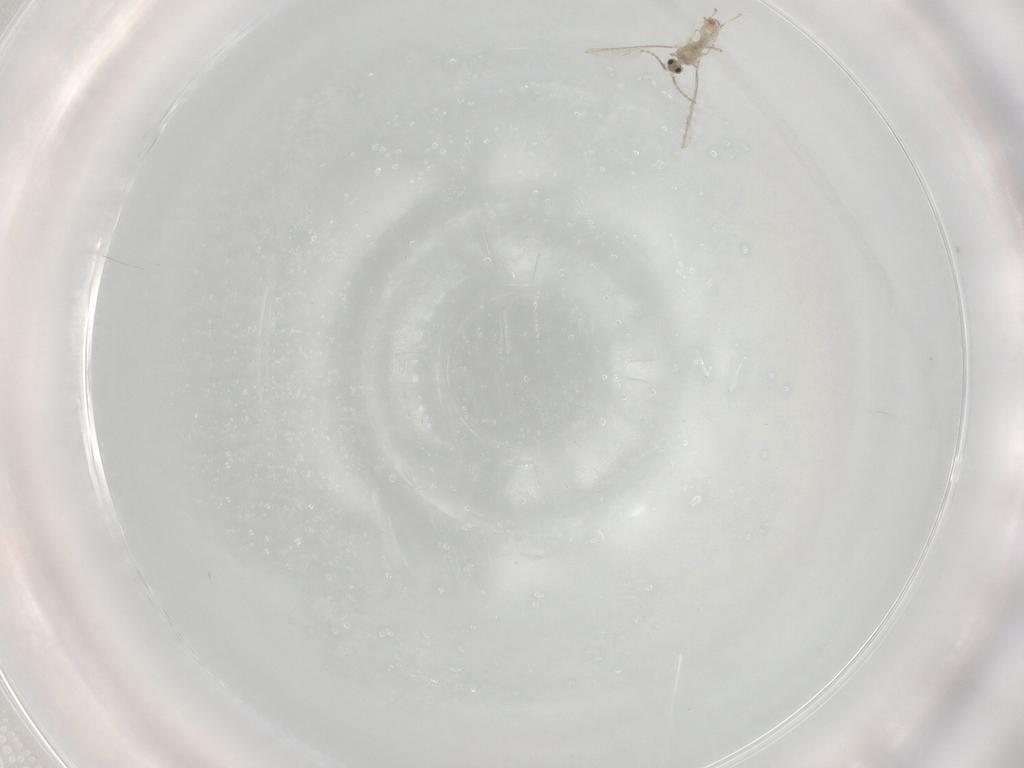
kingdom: Animalia
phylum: Arthropoda
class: Insecta
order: Diptera
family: Cecidomyiidae
